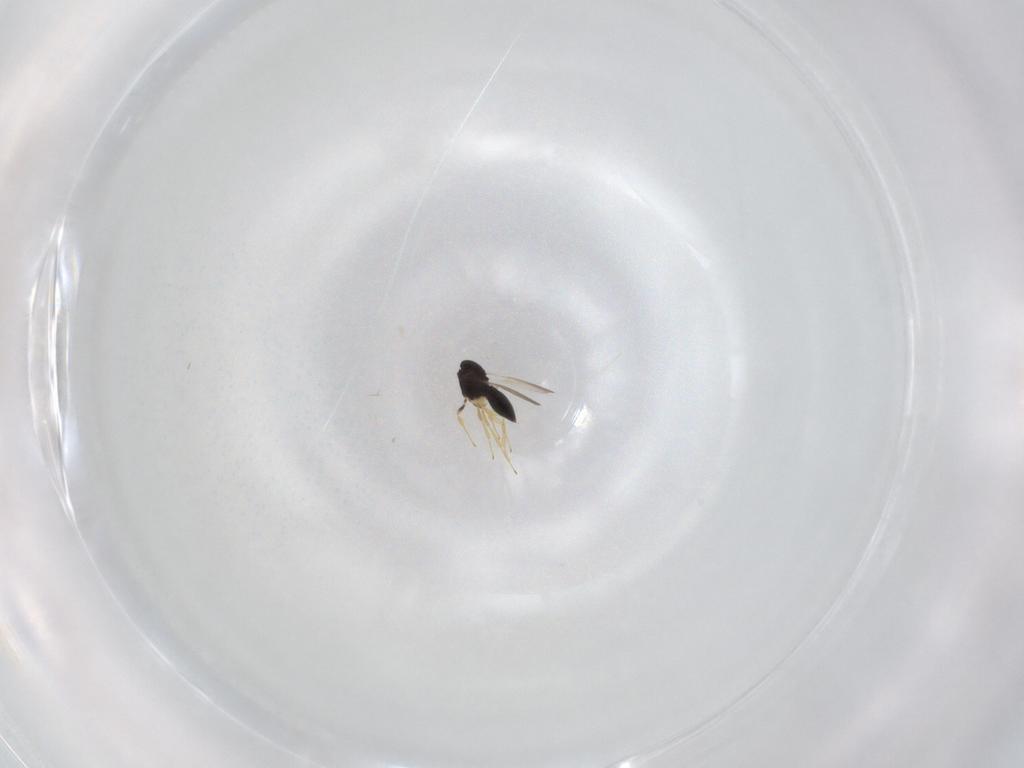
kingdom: Animalia
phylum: Arthropoda
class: Insecta
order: Hymenoptera
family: Scelionidae
